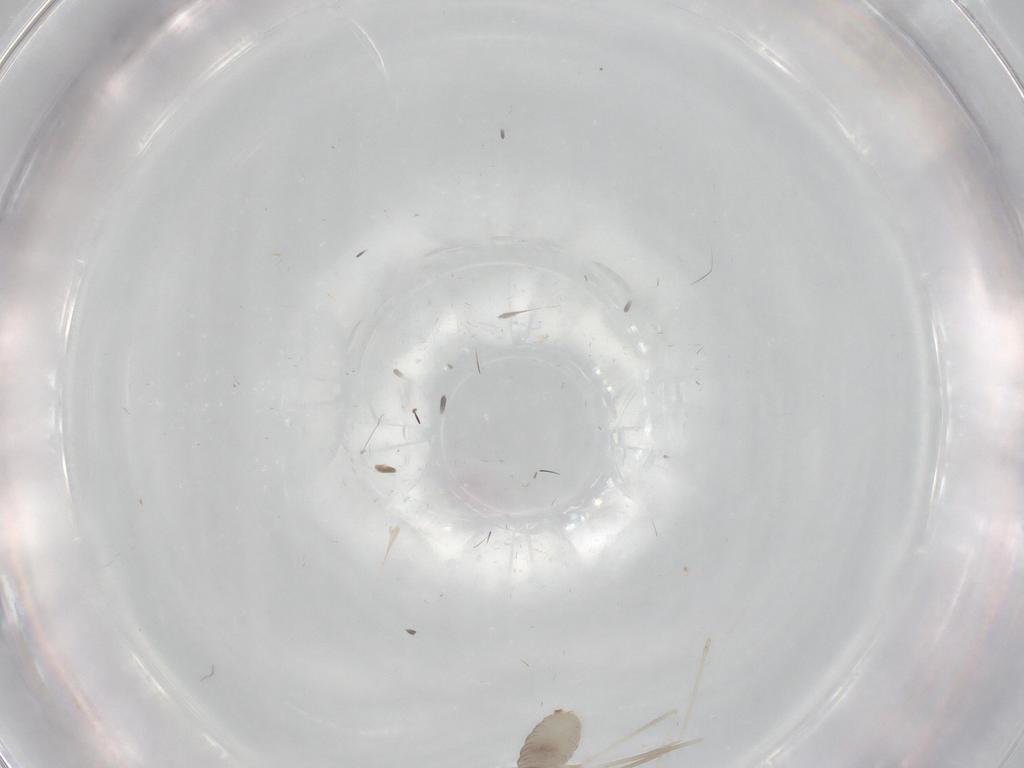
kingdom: Animalia
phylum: Arthropoda
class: Insecta
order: Diptera
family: Cecidomyiidae
